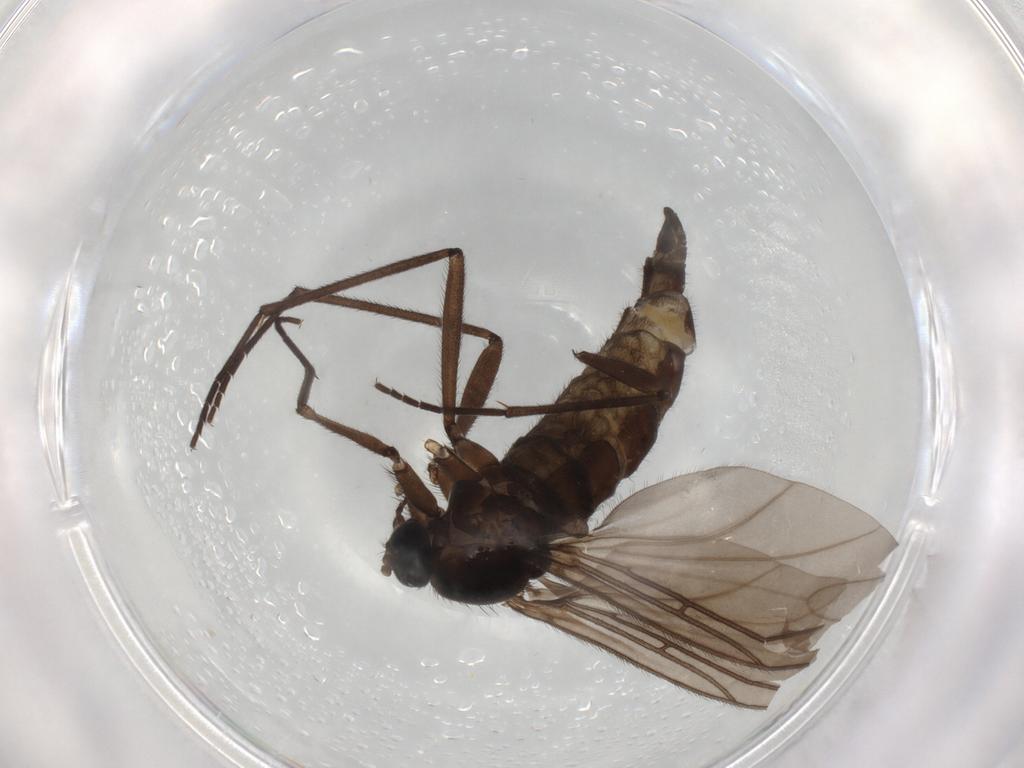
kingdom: Animalia
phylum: Arthropoda
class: Insecta
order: Diptera
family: Sciaridae
